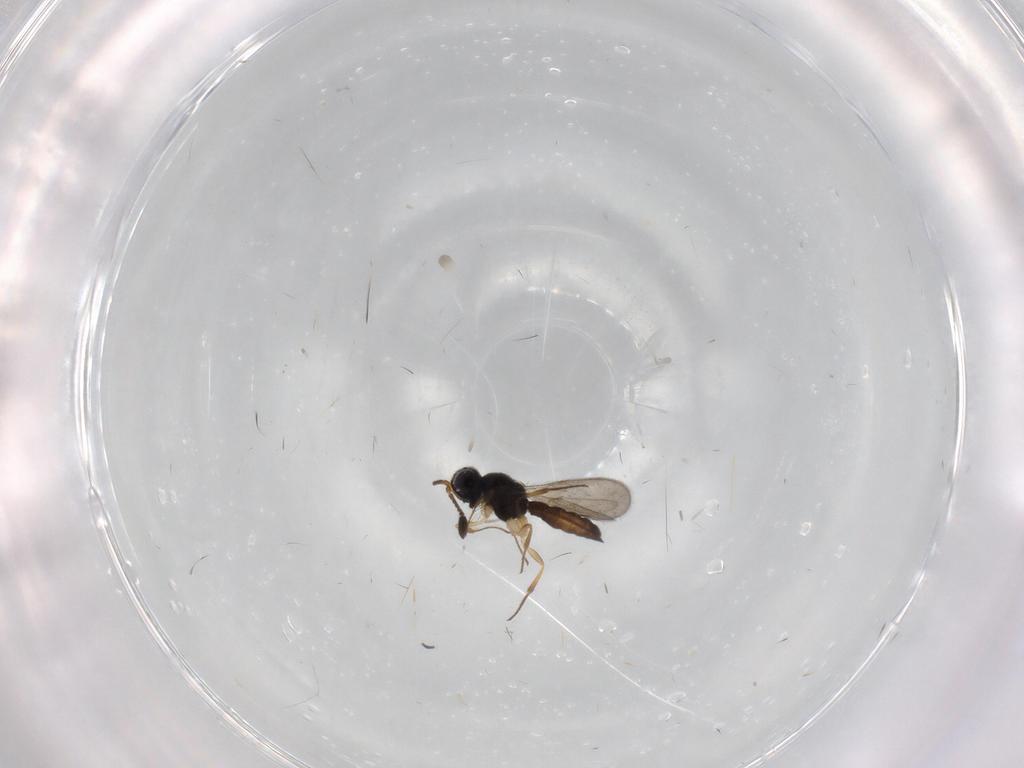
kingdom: Animalia
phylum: Arthropoda
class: Insecta
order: Hymenoptera
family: Scelionidae
